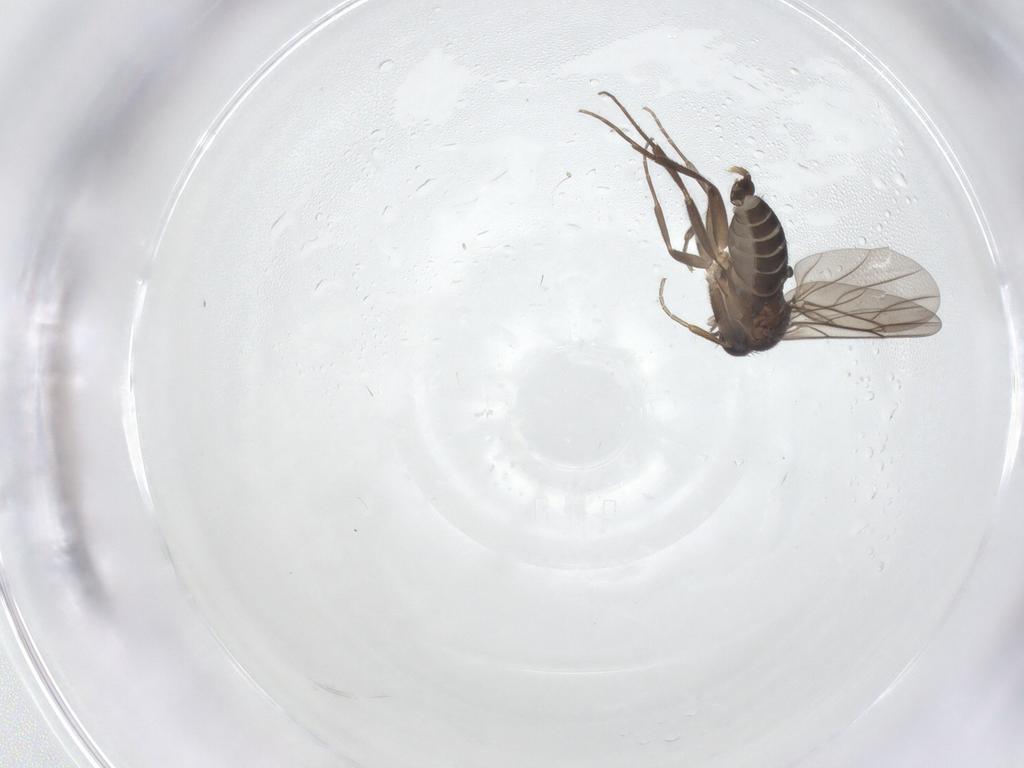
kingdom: Animalia
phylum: Arthropoda
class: Insecta
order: Diptera
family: Phoridae
